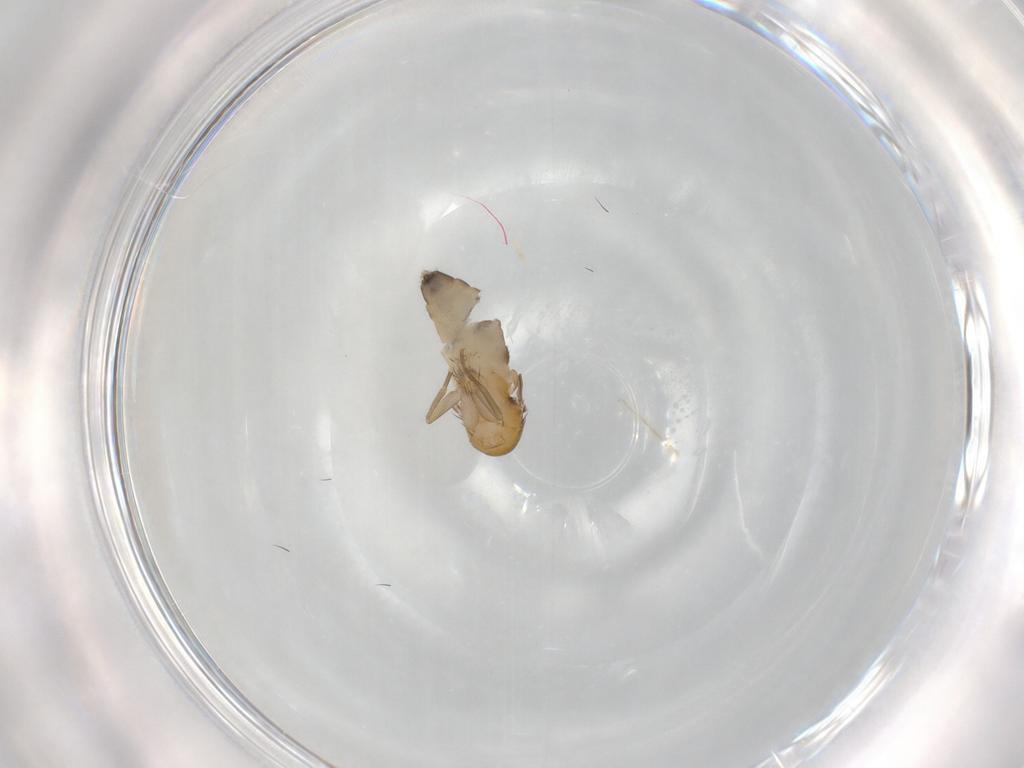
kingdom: Animalia
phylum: Arthropoda
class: Insecta
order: Diptera
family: Phoridae
